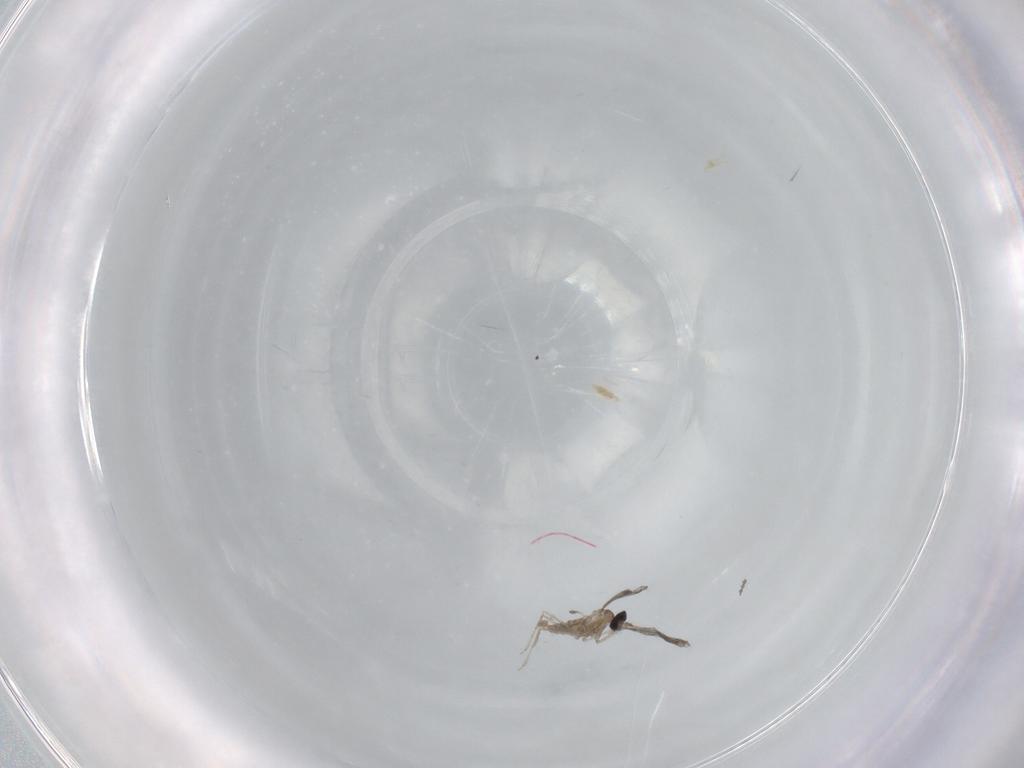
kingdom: Animalia
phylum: Arthropoda
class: Insecta
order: Diptera
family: Cecidomyiidae
